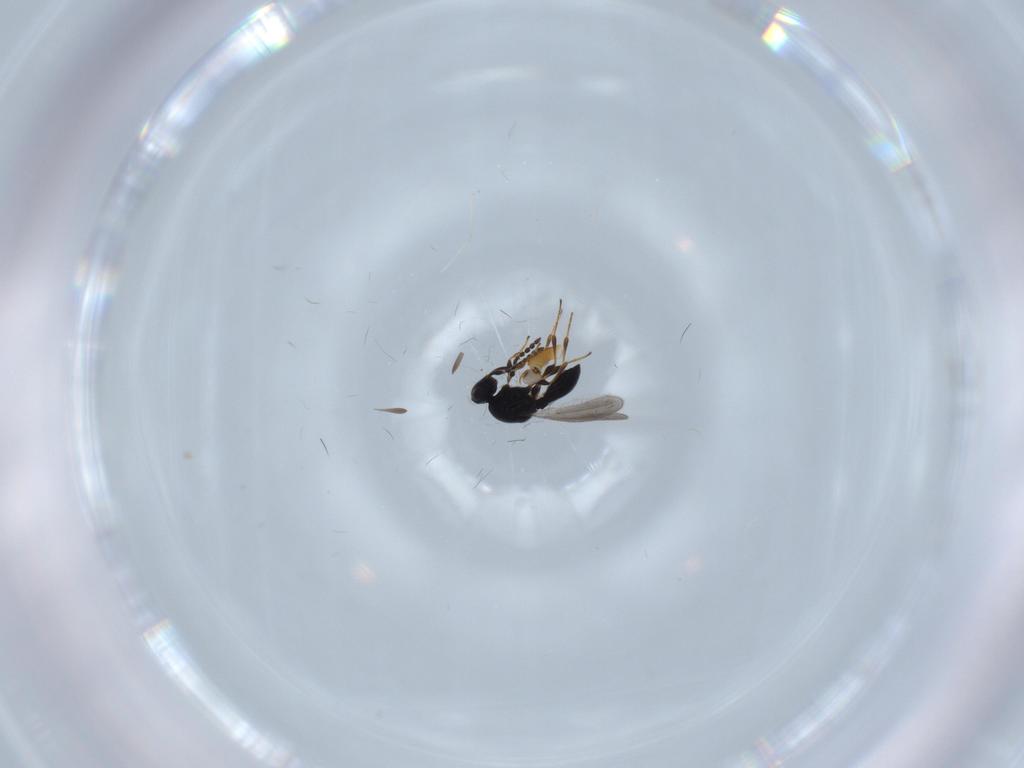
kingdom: Animalia
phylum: Arthropoda
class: Insecta
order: Hymenoptera
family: Platygastridae
